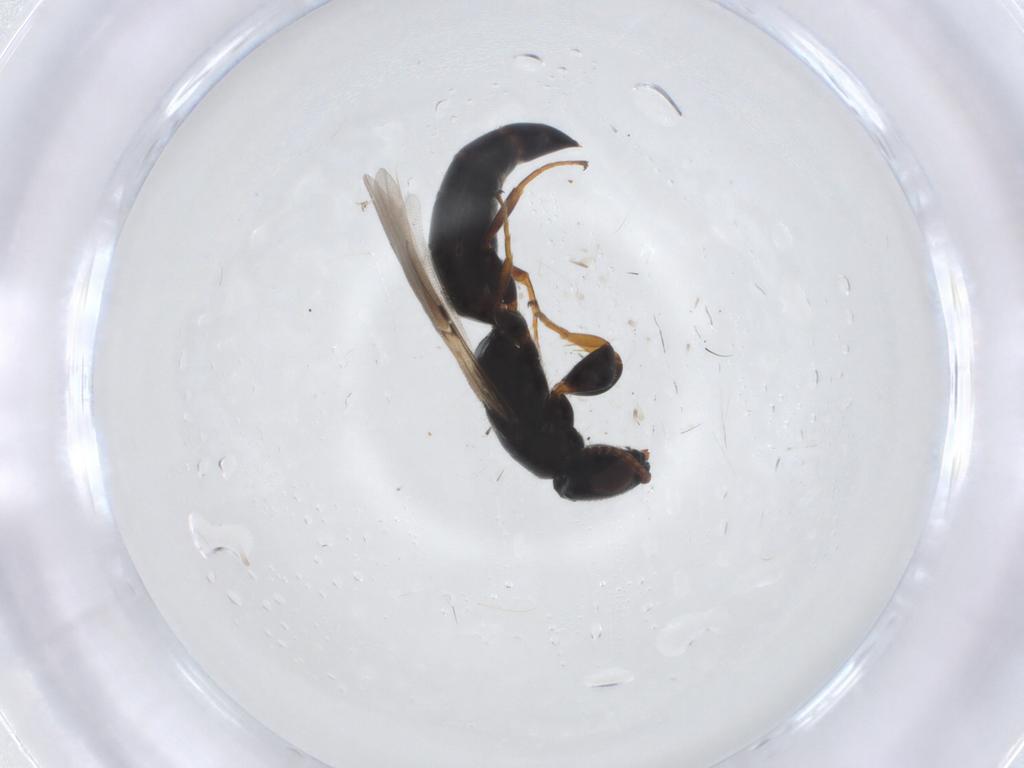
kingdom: Animalia
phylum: Arthropoda
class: Insecta
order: Hymenoptera
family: Bethylidae
